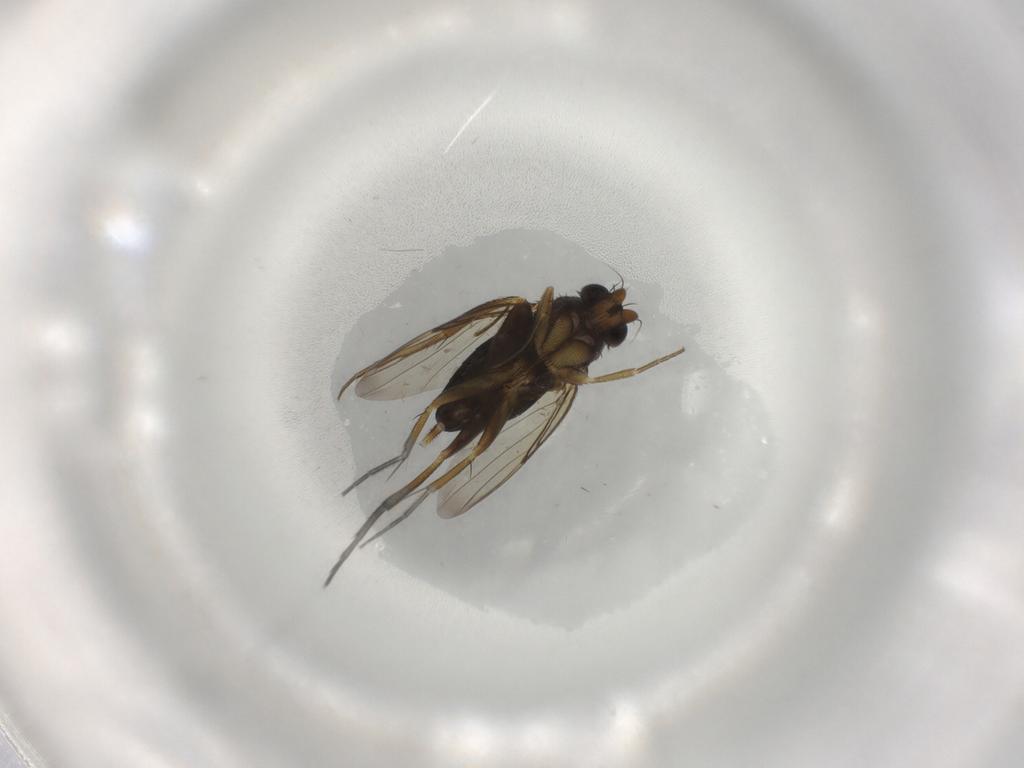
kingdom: Animalia
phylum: Arthropoda
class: Insecta
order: Diptera
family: Phoridae
